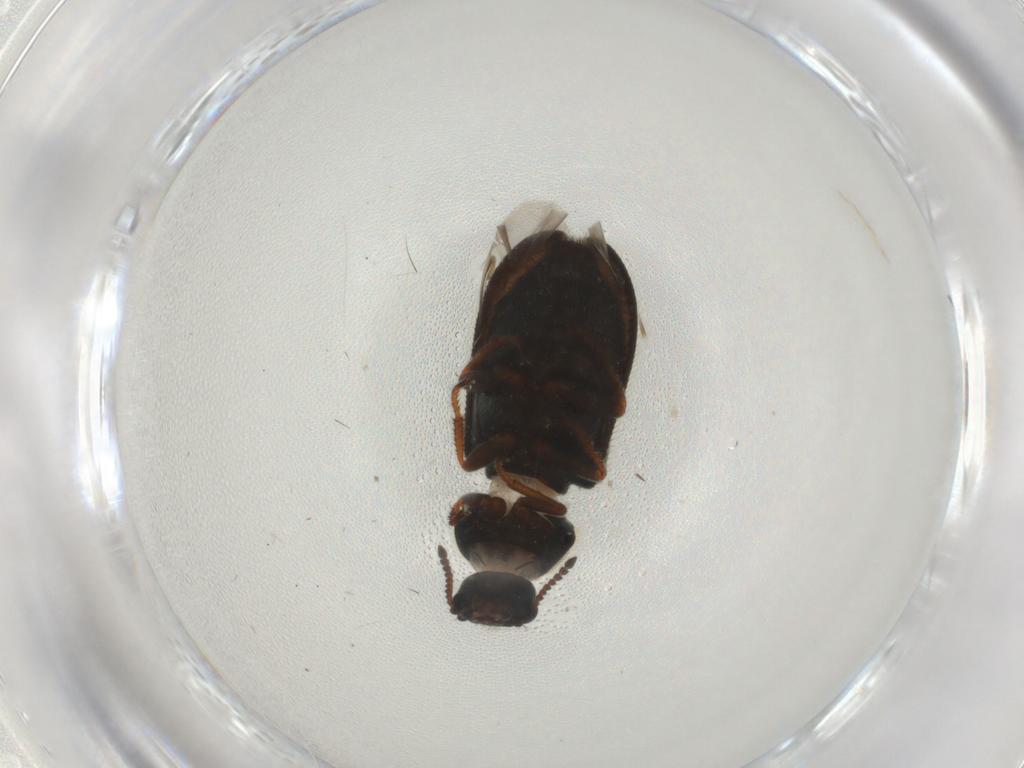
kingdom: Animalia
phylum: Arthropoda
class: Insecta
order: Coleoptera
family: Melyridae
